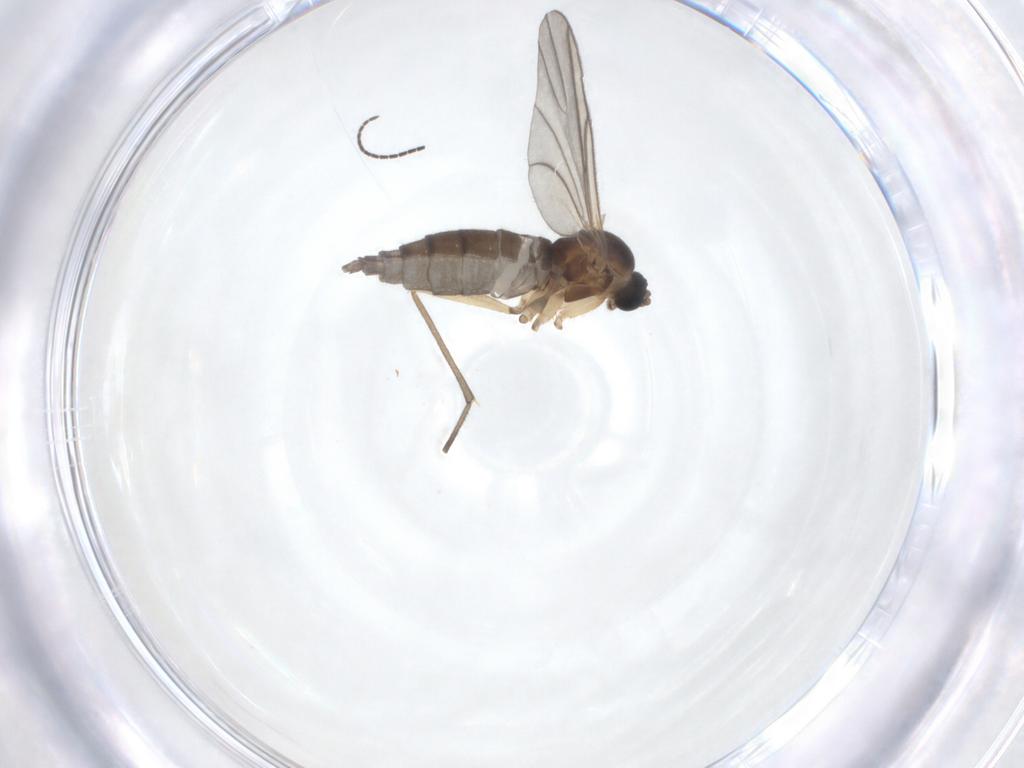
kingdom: Animalia
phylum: Arthropoda
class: Insecta
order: Diptera
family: Sciaridae
